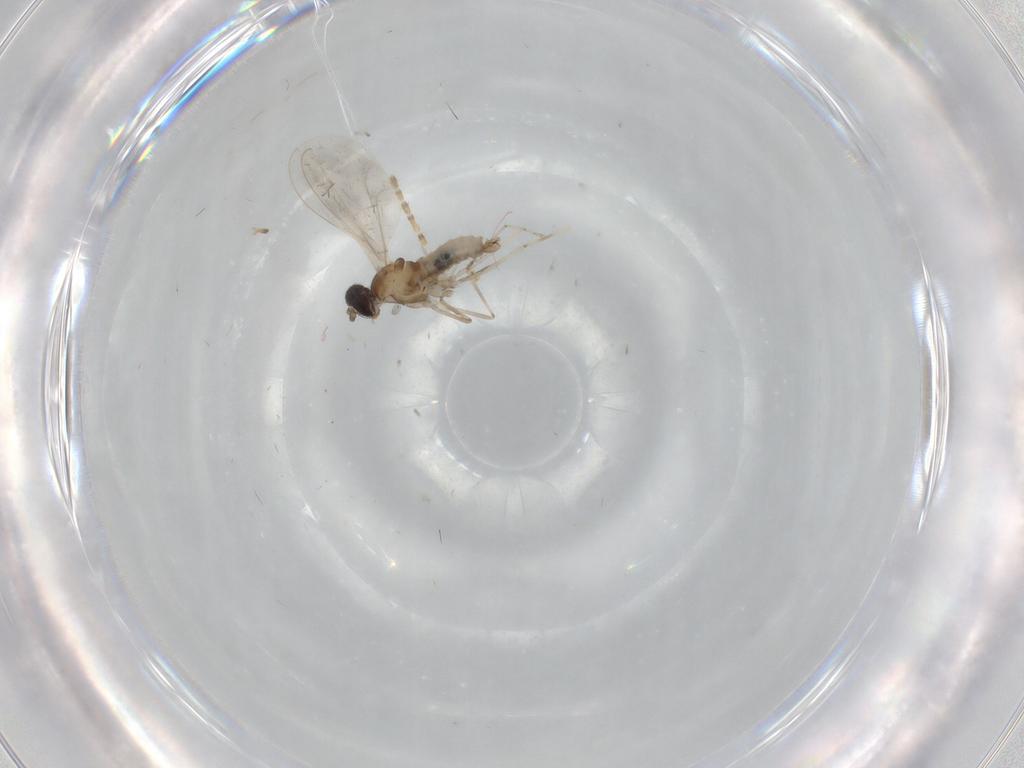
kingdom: Animalia
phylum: Arthropoda
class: Insecta
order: Diptera
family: Cecidomyiidae
